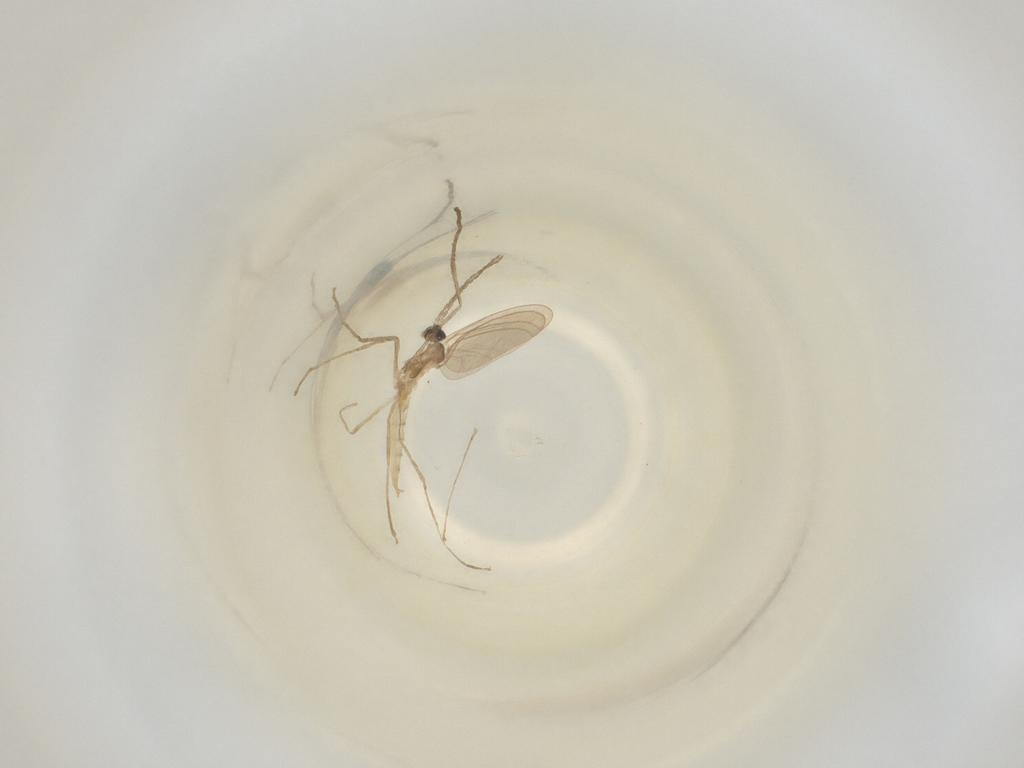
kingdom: Animalia
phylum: Arthropoda
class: Insecta
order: Diptera
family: Cecidomyiidae
